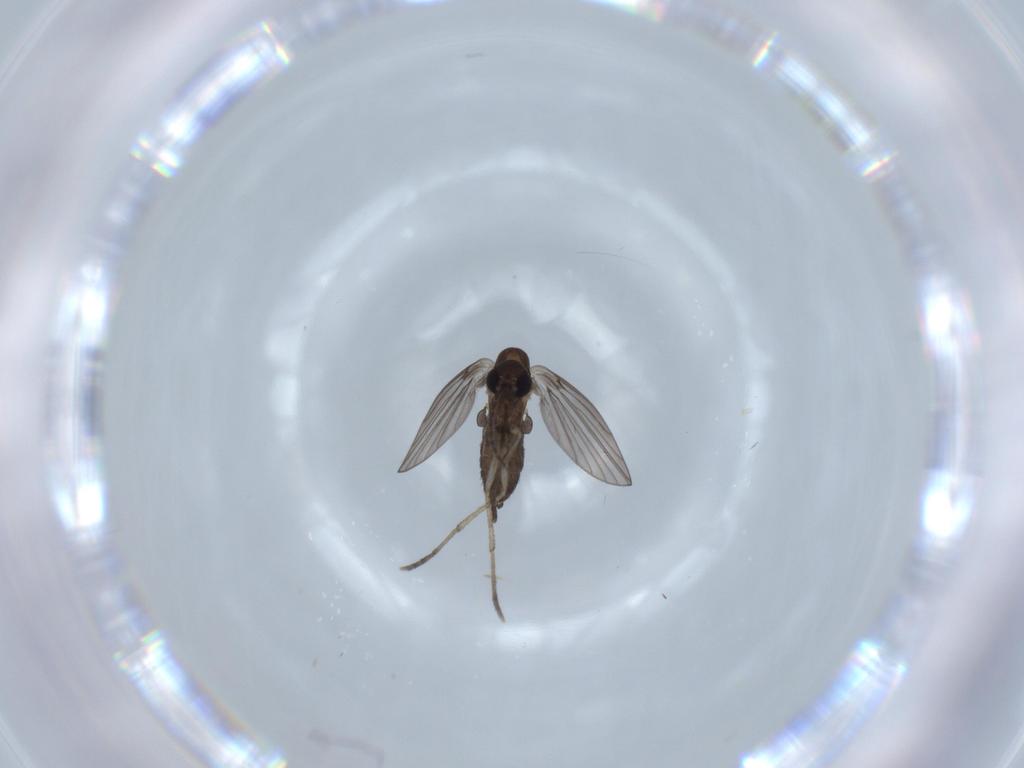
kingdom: Animalia
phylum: Arthropoda
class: Insecta
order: Diptera
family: Psychodidae
